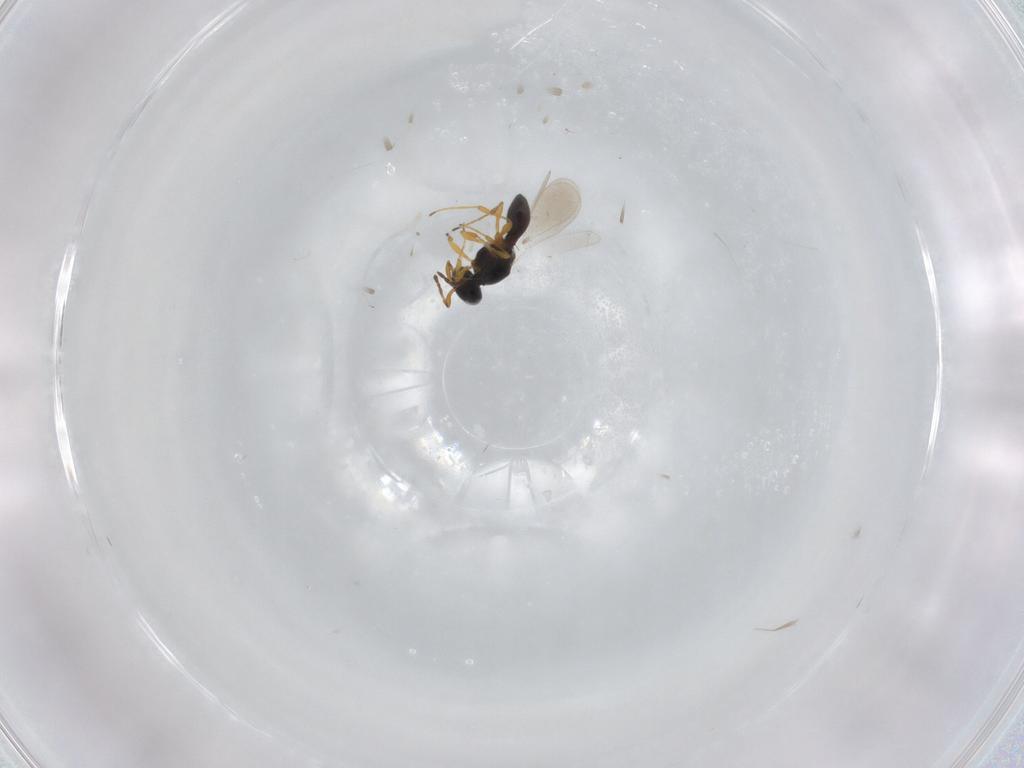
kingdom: Animalia
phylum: Arthropoda
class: Insecta
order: Hymenoptera
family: Platygastridae
